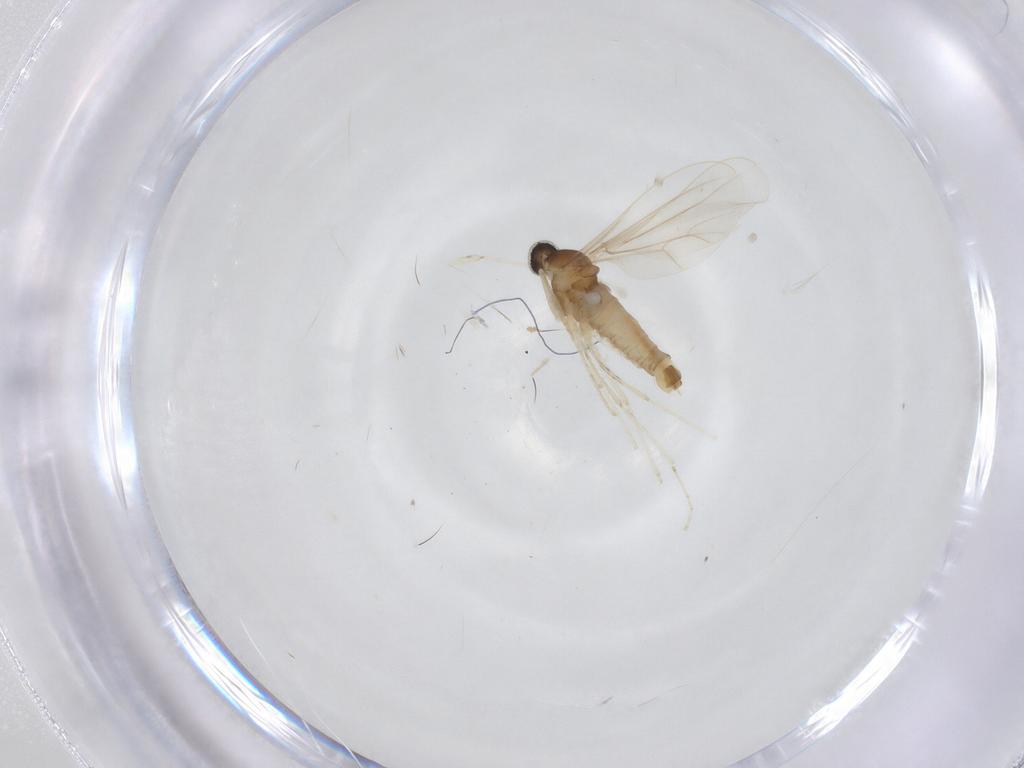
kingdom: Animalia
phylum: Arthropoda
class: Insecta
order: Diptera
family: Cecidomyiidae
